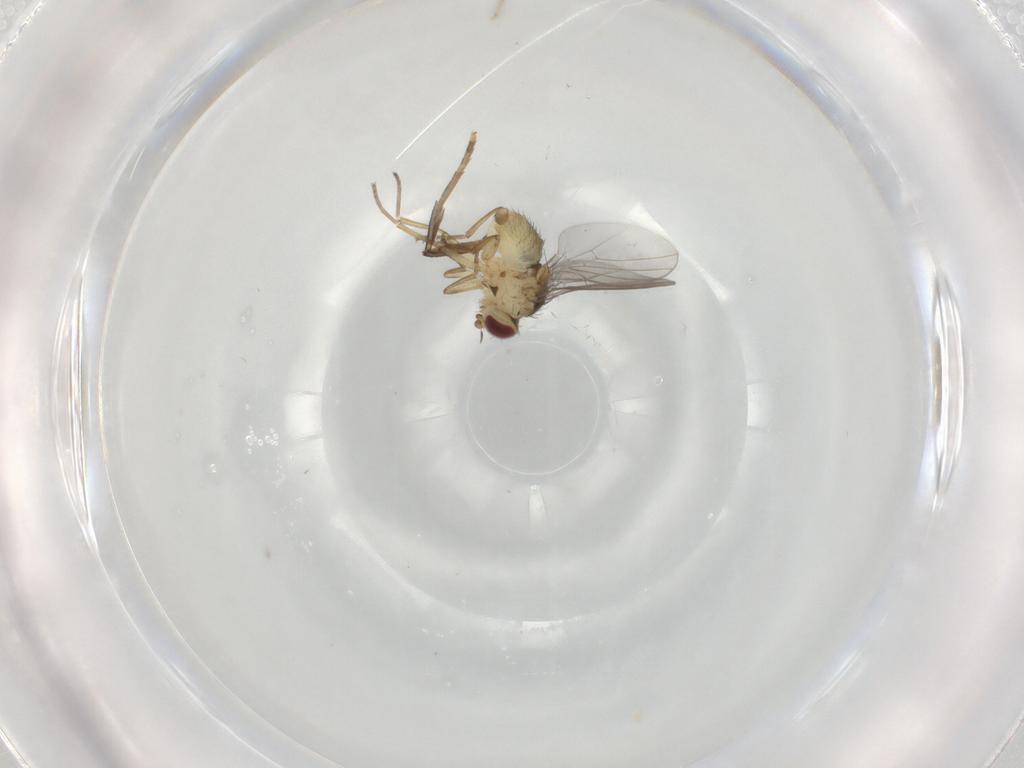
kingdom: Animalia
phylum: Arthropoda
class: Insecta
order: Diptera
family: Agromyzidae
